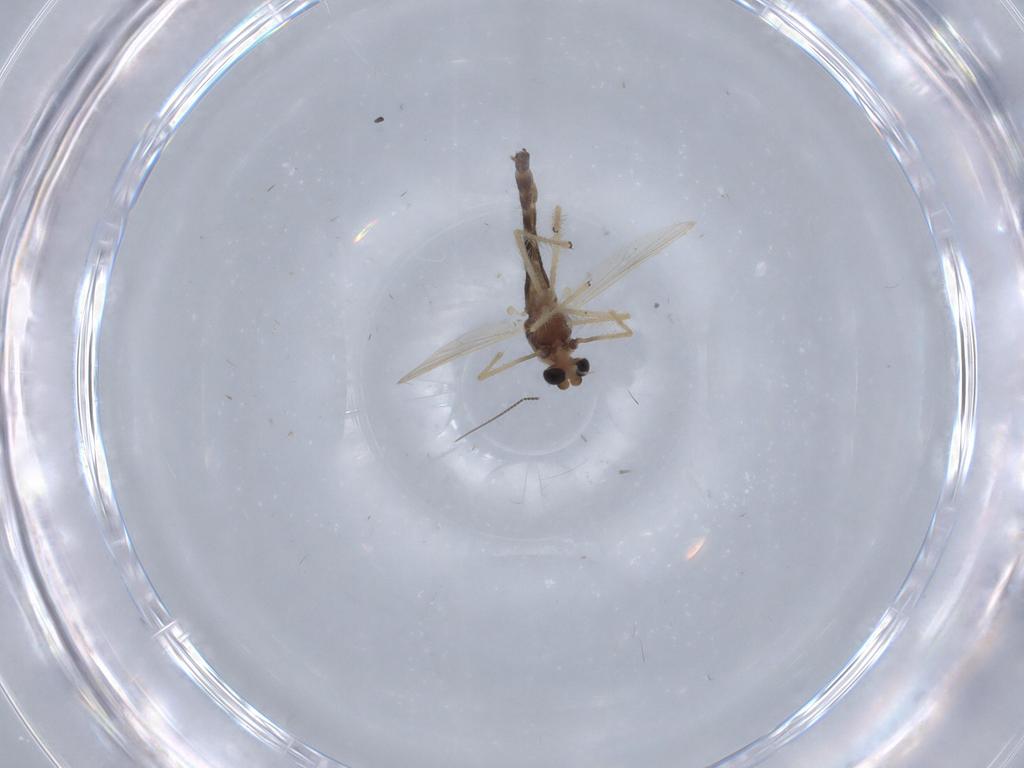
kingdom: Animalia
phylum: Arthropoda
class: Insecta
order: Diptera
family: Chironomidae
